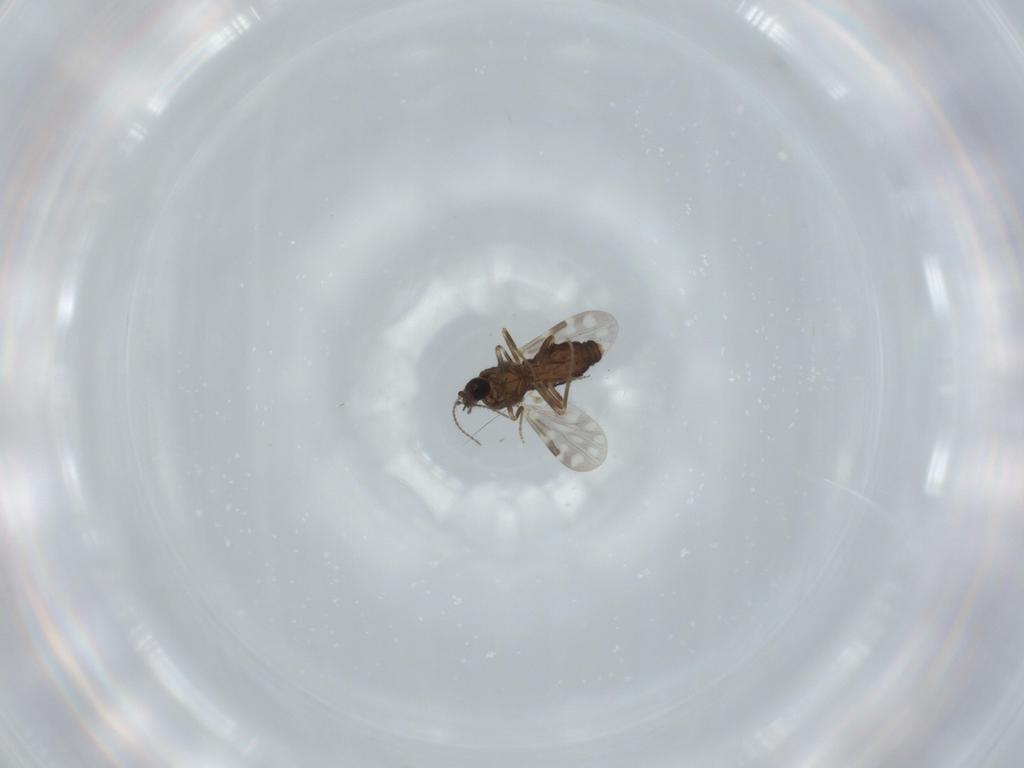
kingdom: Animalia
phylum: Arthropoda
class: Insecta
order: Diptera
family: Ceratopogonidae
